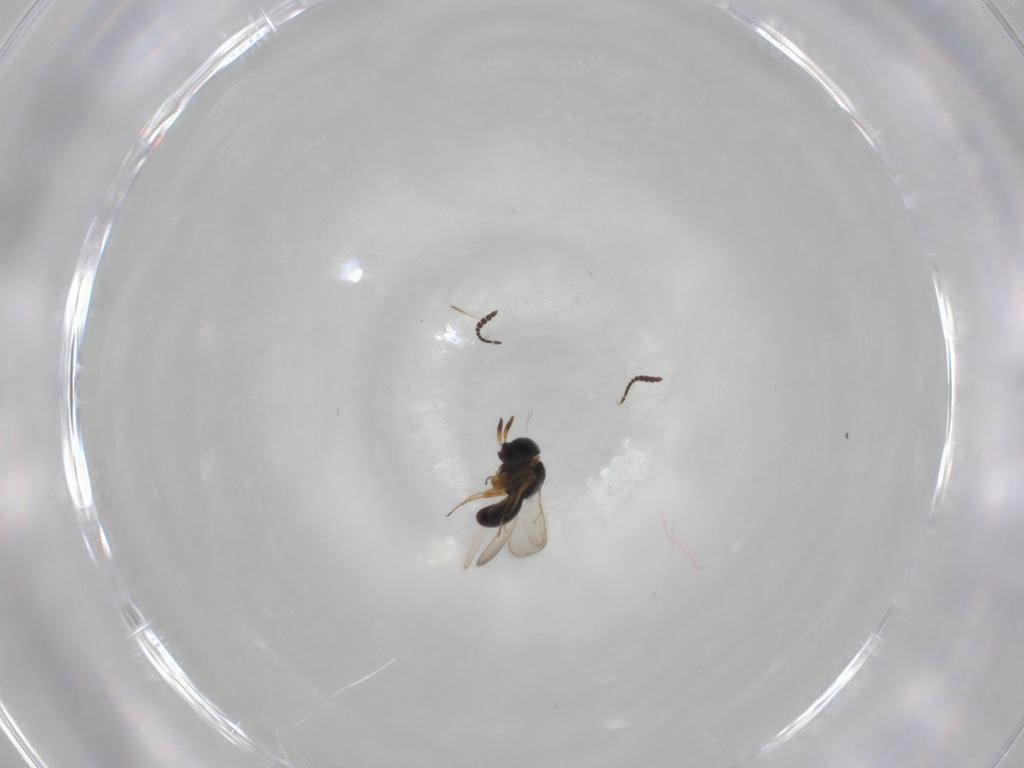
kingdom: Animalia
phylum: Arthropoda
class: Insecta
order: Hymenoptera
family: Scelionidae
